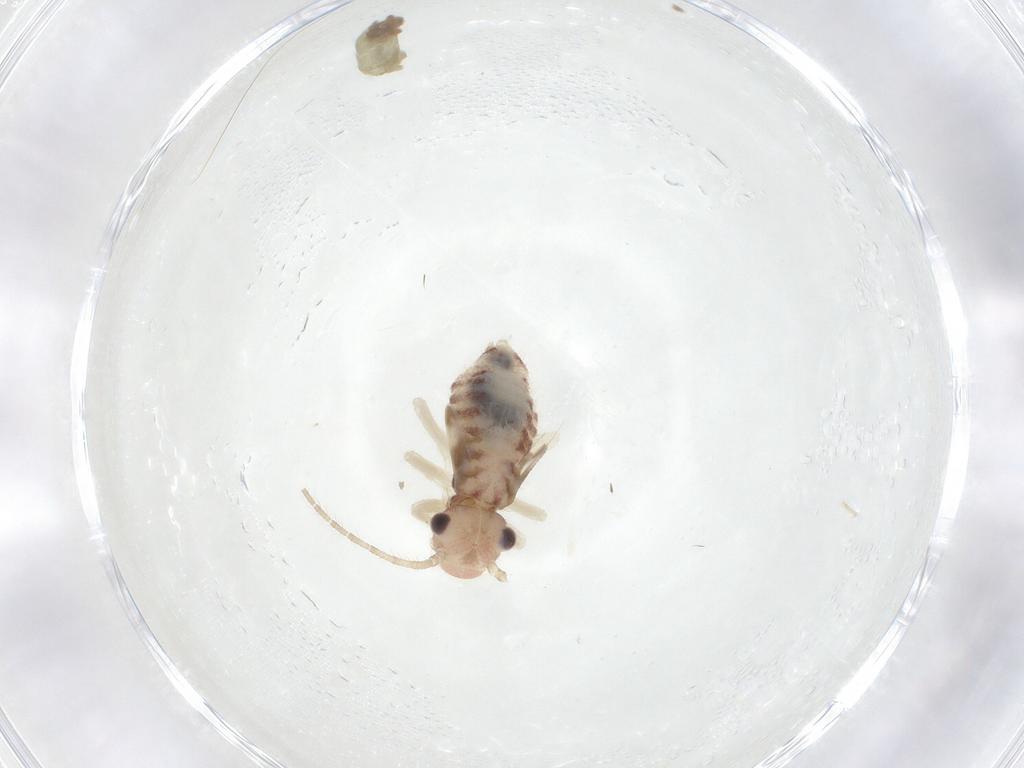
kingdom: Animalia
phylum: Arthropoda
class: Insecta
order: Psocodea
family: Amphipsocidae
